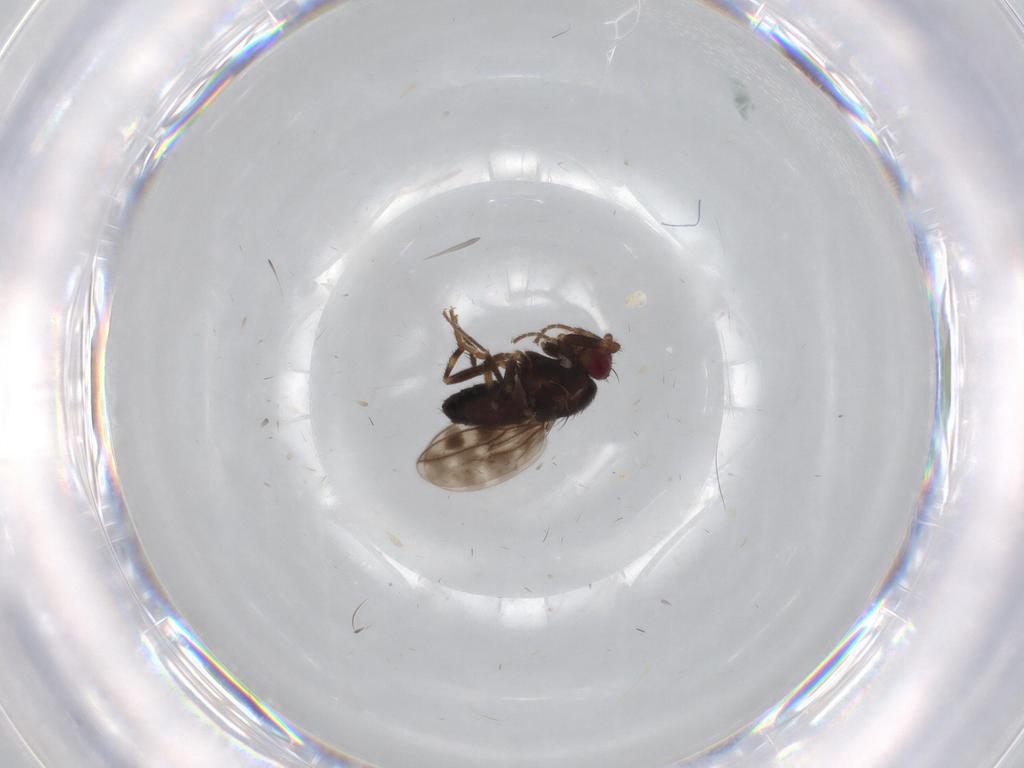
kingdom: Animalia
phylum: Arthropoda
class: Insecta
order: Diptera
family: Sphaeroceridae
